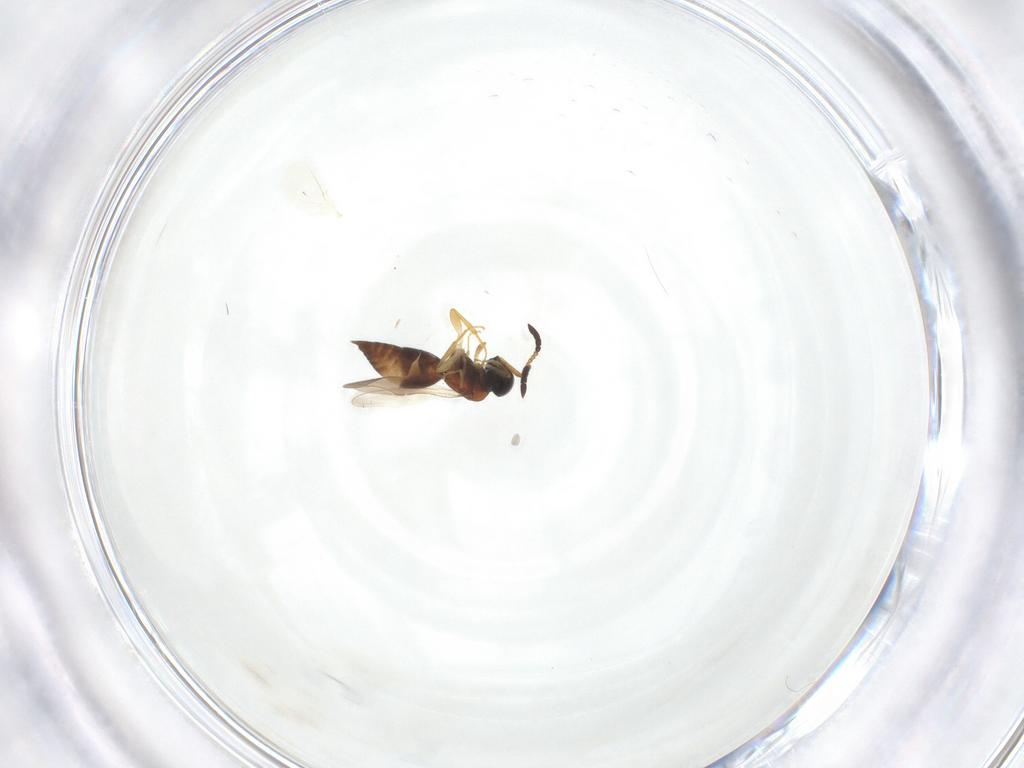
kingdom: Animalia
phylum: Arthropoda
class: Insecta
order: Hymenoptera
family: Ceraphronidae
